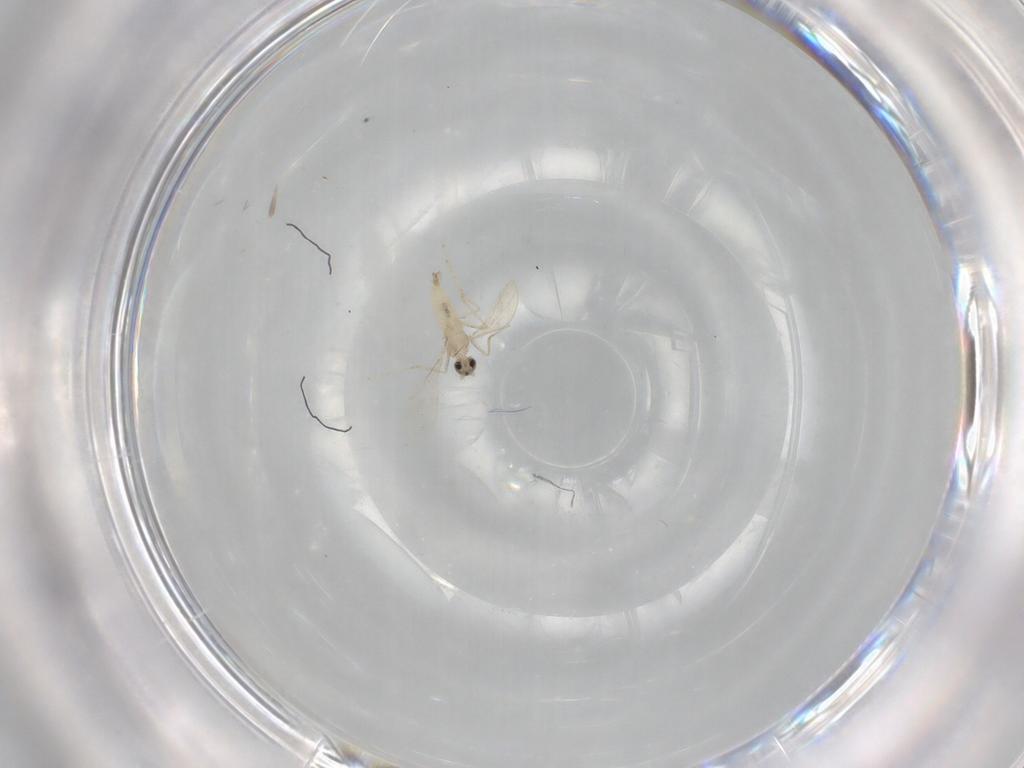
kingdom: Animalia
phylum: Arthropoda
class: Insecta
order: Diptera
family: Cecidomyiidae
